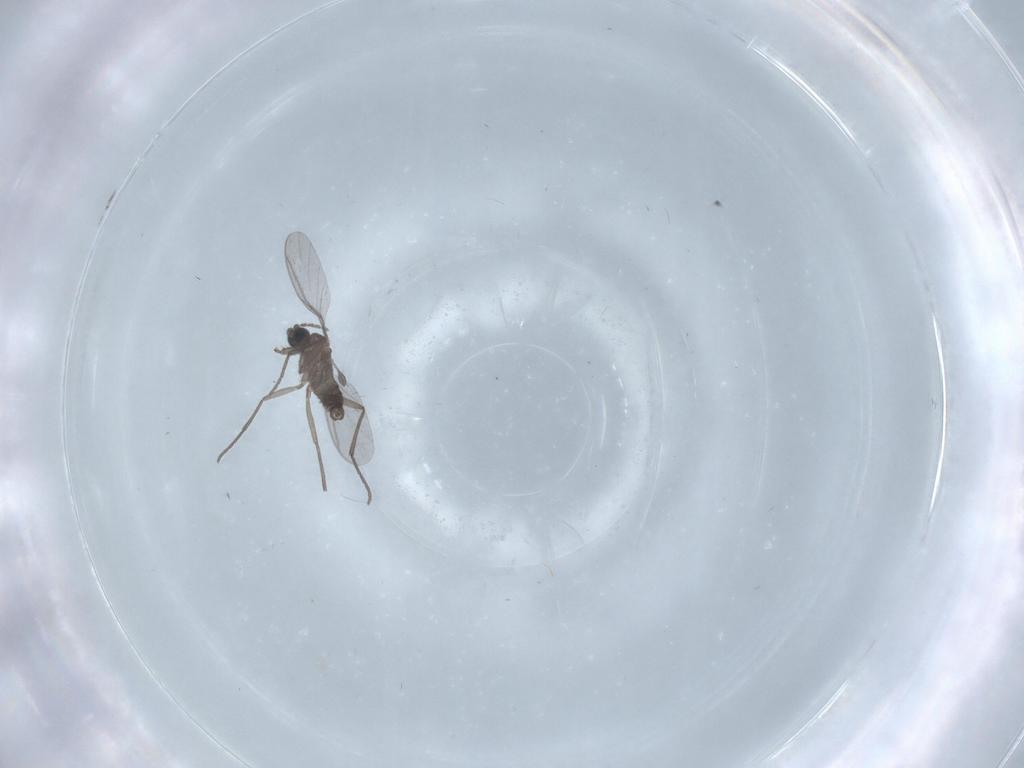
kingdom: Animalia
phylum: Arthropoda
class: Insecta
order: Diptera
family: Sciaridae
